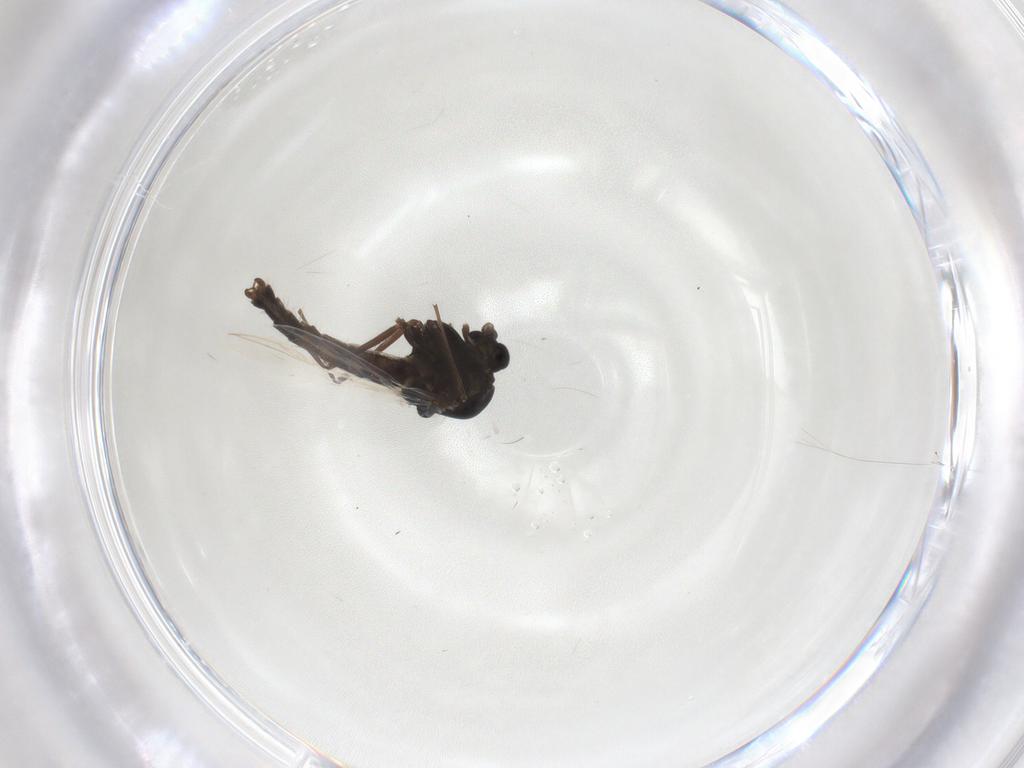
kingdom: Animalia
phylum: Arthropoda
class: Insecta
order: Diptera
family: Chironomidae
